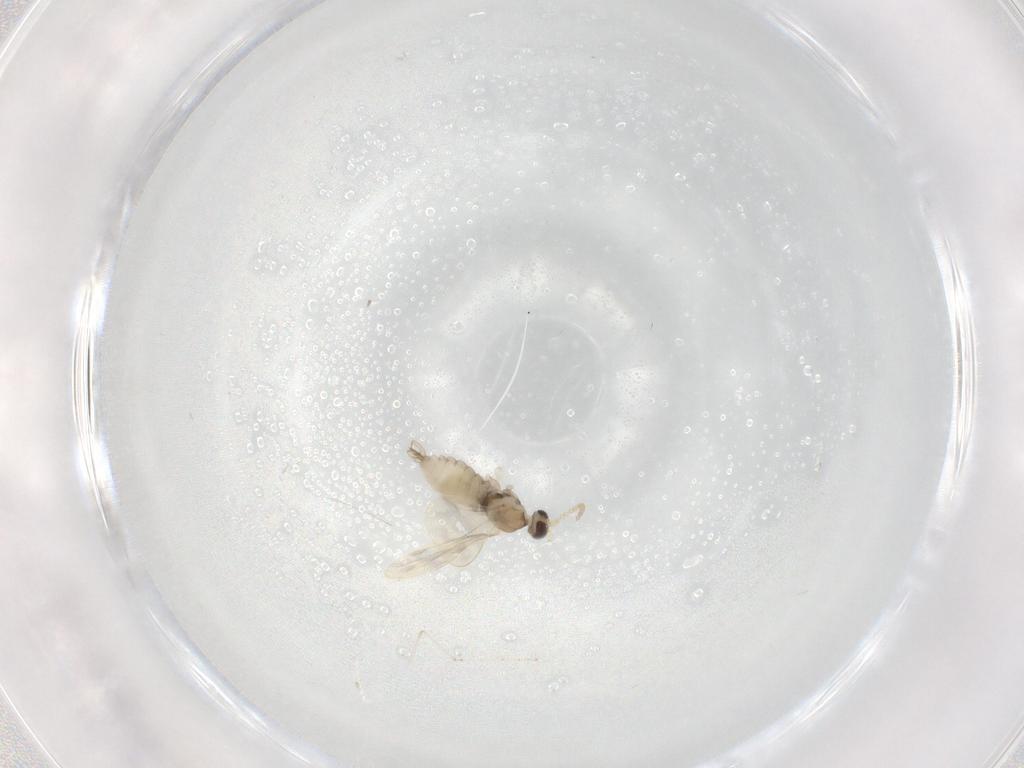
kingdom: Animalia
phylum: Arthropoda
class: Insecta
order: Diptera
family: Cecidomyiidae
